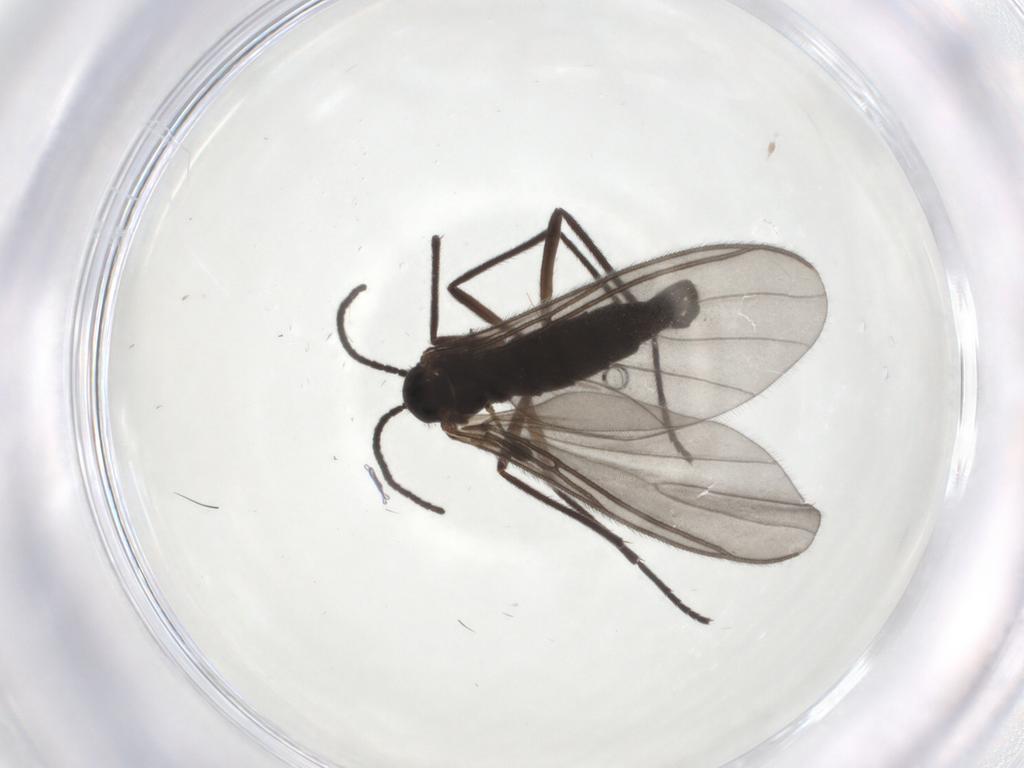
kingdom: Animalia
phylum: Arthropoda
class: Insecta
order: Diptera
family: Sciaridae
